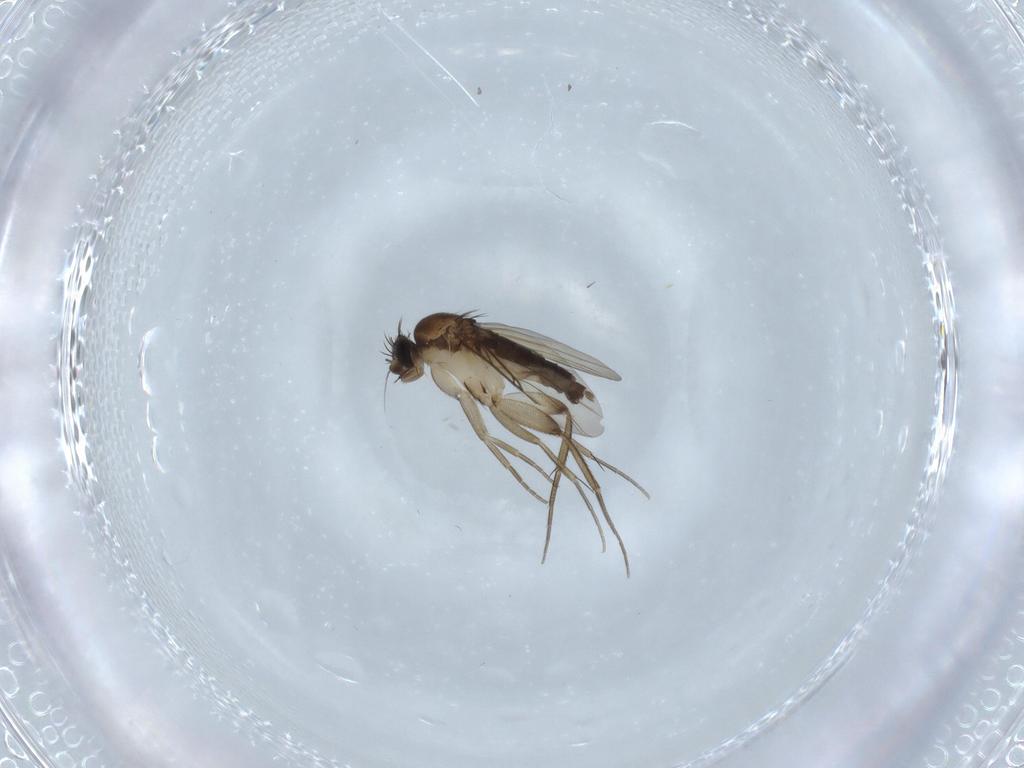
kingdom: Animalia
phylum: Arthropoda
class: Insecta
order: Diptera
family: Phoridae
